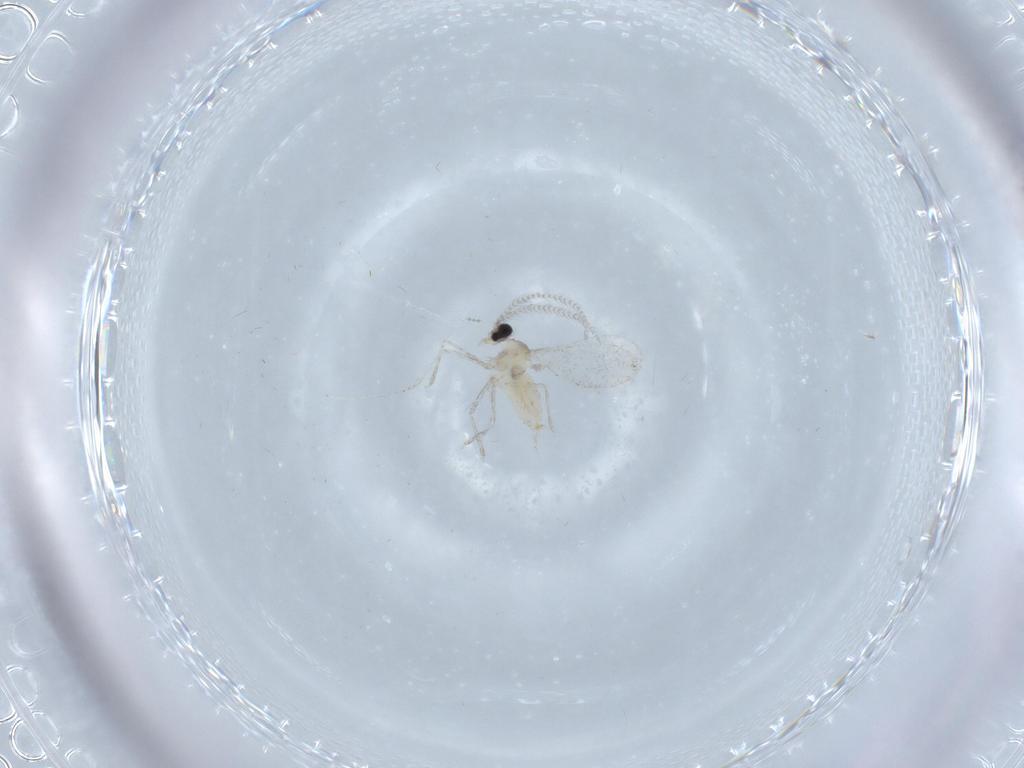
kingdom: Animalia
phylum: Arthropoda
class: Insecta
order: Diptera
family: Cecidomyiidae
